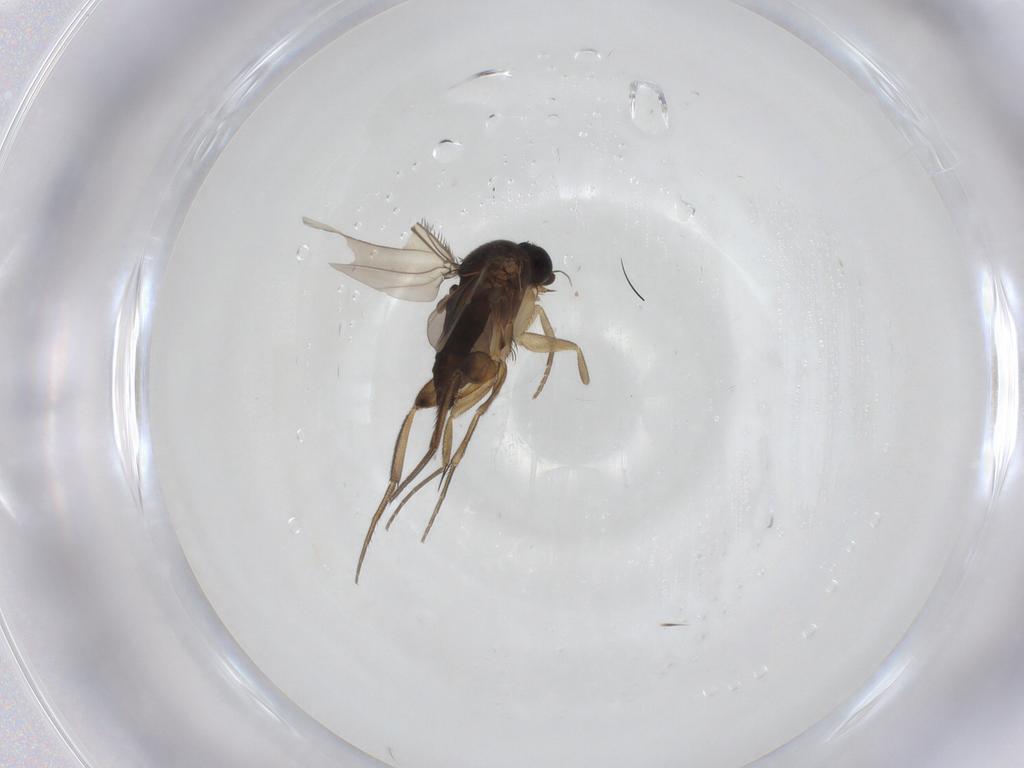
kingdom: Animalia
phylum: Arthropoda
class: Insecta
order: Diptera
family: Phoridae
